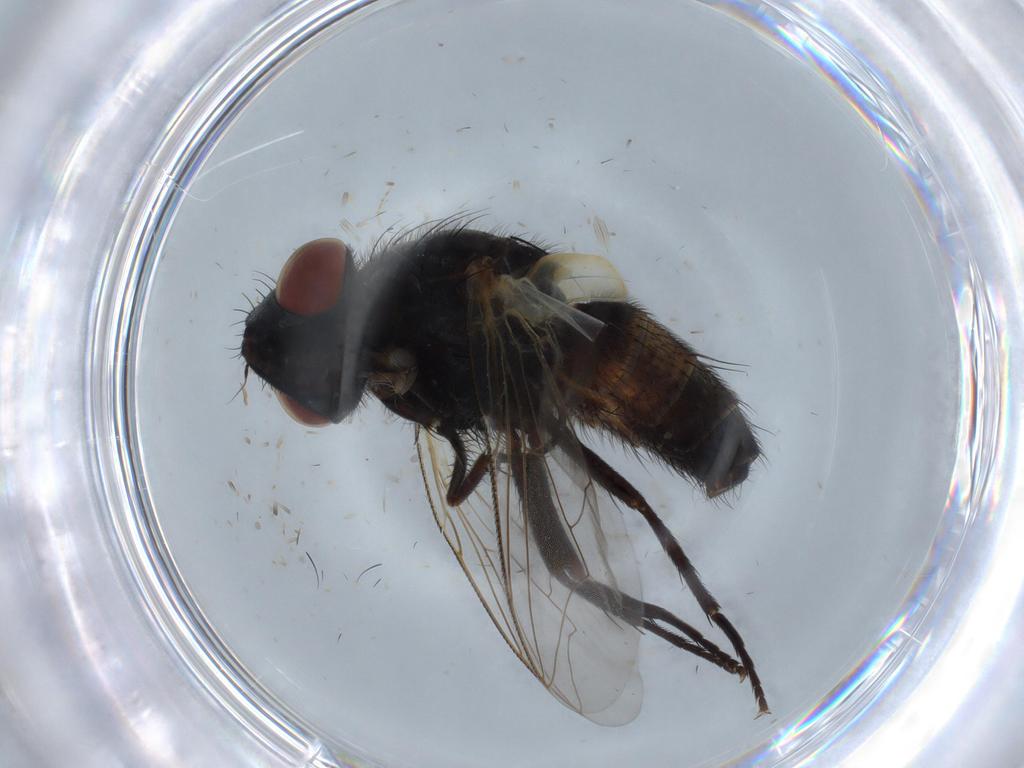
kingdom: Animalia
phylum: Arthropoda
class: Insecta
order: Diptera
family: Sarcophagidae
